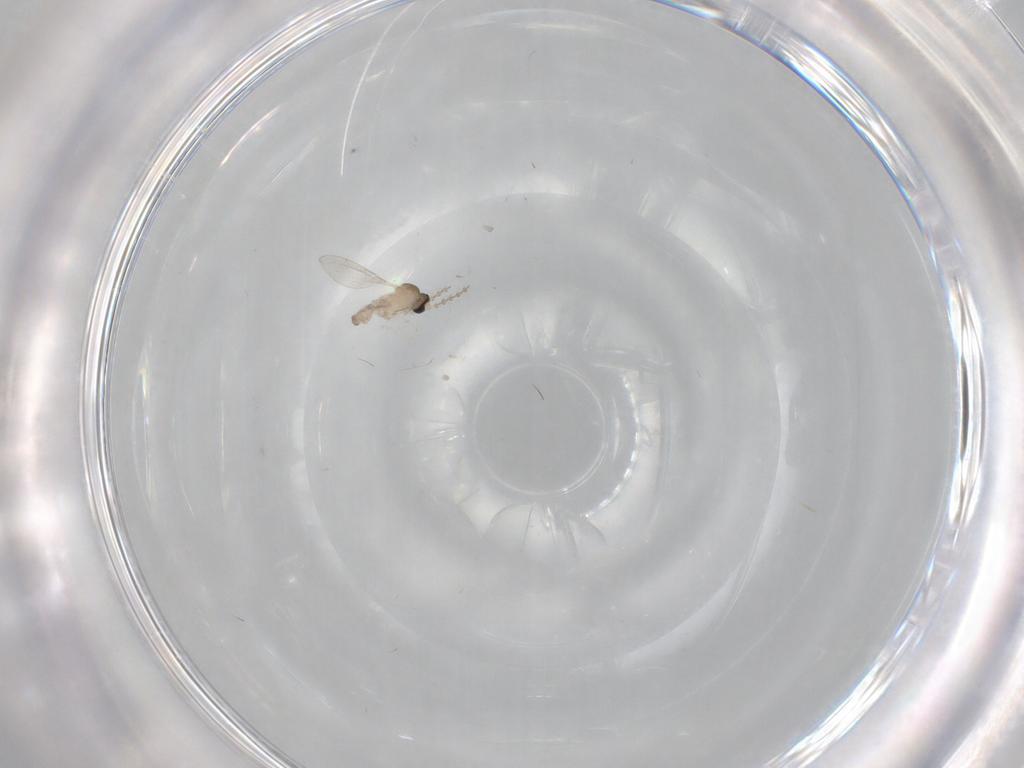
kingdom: Animalia
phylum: Arthropoda
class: Insecta
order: Diptera
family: Cecidomyiidae
